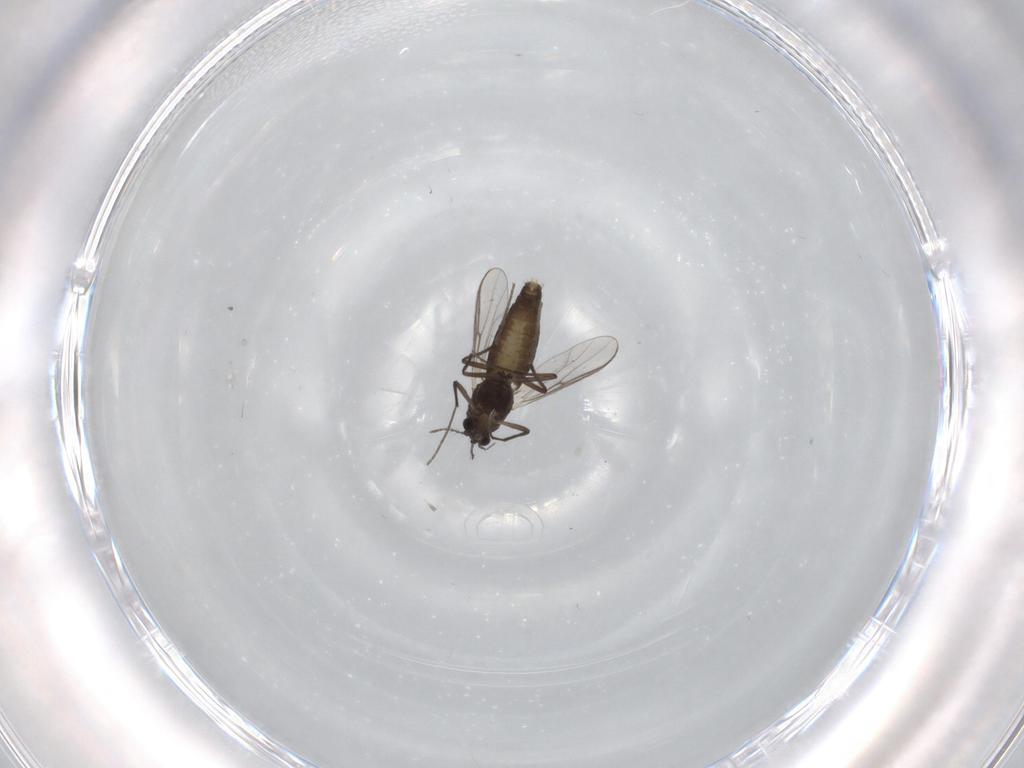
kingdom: Animalia
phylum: Arthropoda
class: Insecta
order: Diptera
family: Chironomidae
